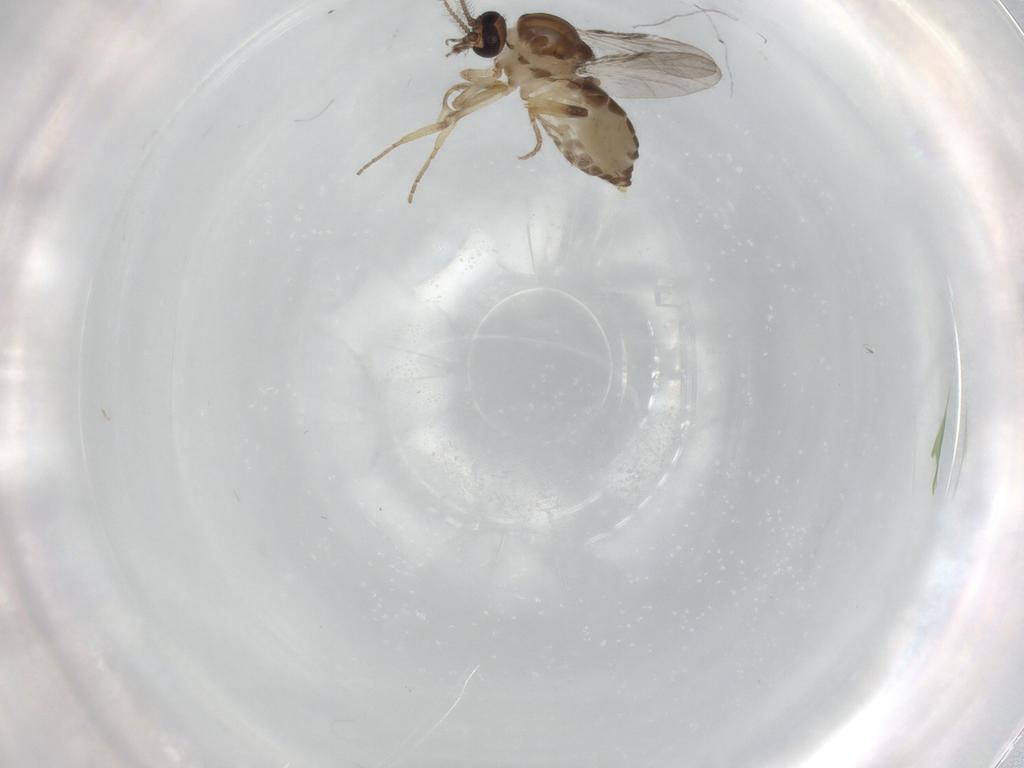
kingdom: Animalia
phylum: Arthropoda
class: Insecta
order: Diptera
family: Ceratopogonidae
